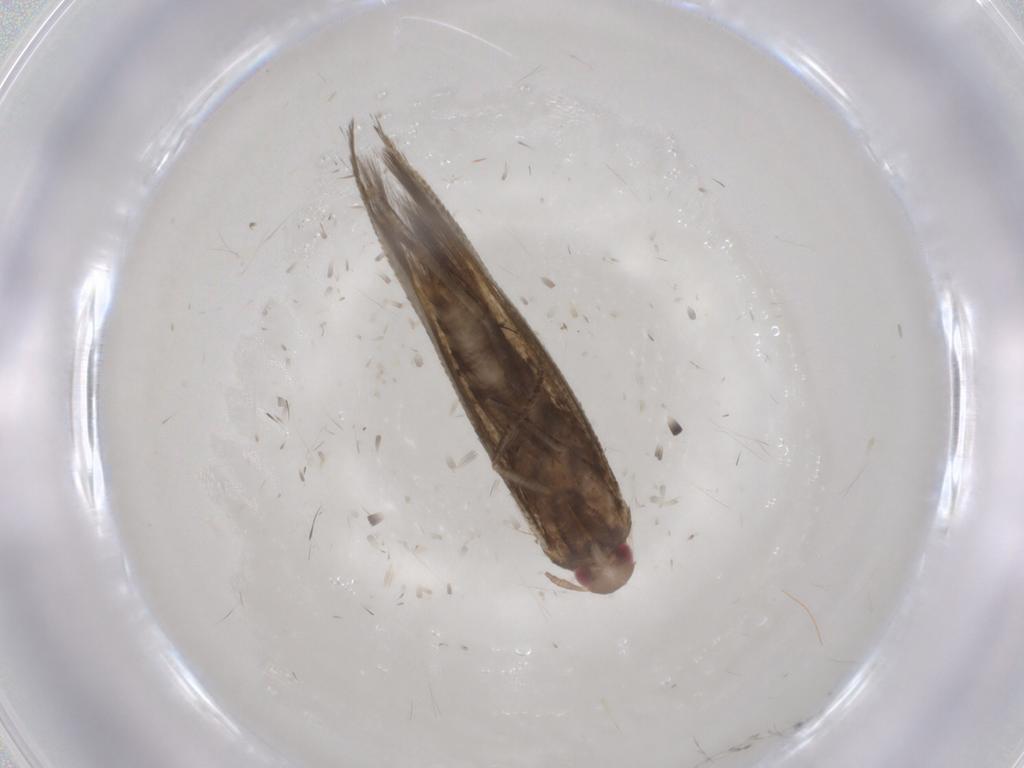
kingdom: Animalia
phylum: Arthropoda
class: Insecta
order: Lepidoptera
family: Momphidae
